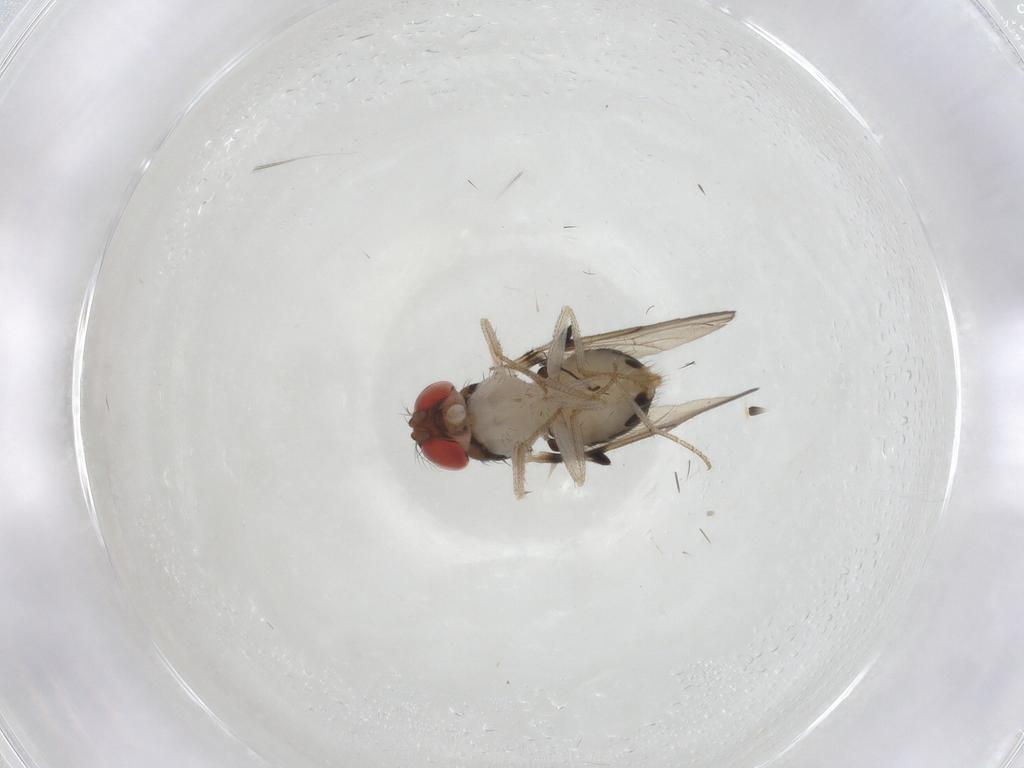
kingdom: Animalia
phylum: Arthropoda
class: Insecta
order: Diptera
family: Drosophilidae
